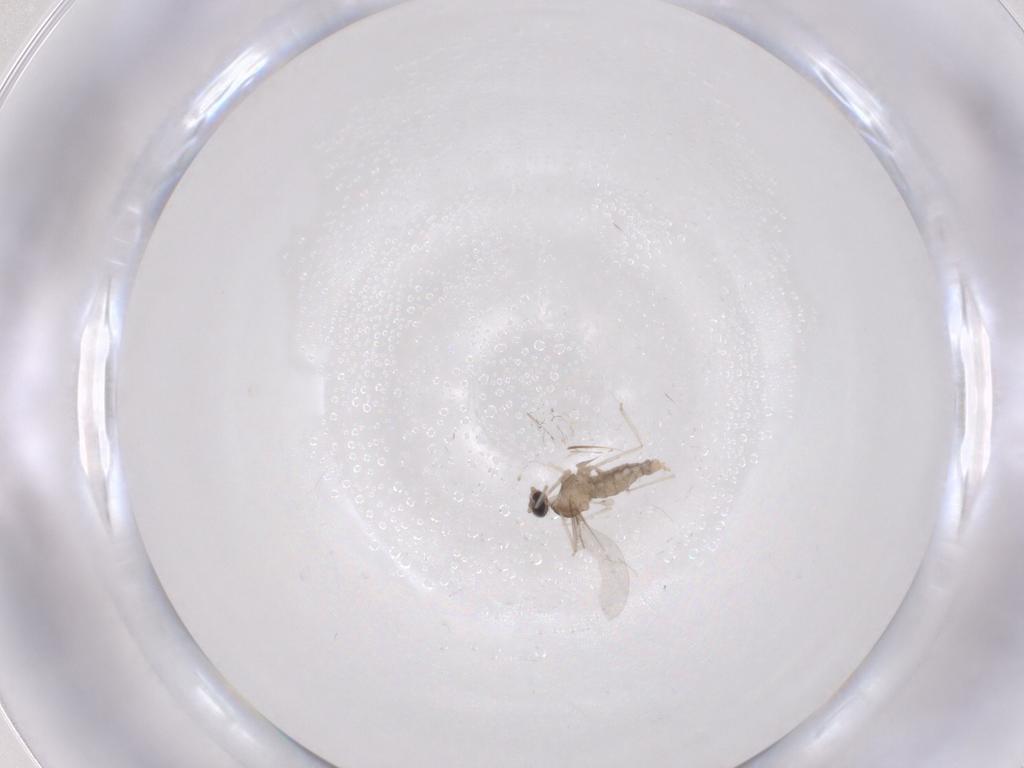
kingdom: Animalia
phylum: Arthropoda
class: Insecta
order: Diptera
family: Cecidomyiidae
